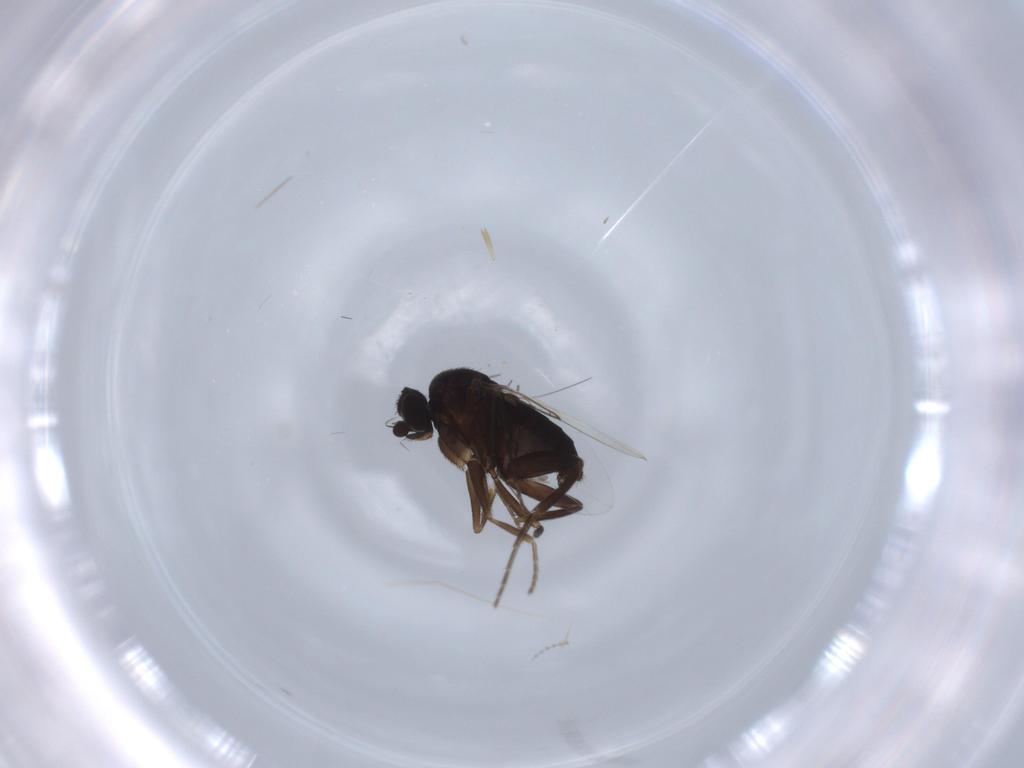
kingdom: Animalia
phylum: Arthropoda
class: Insecta
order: Diptera
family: Phoridae
